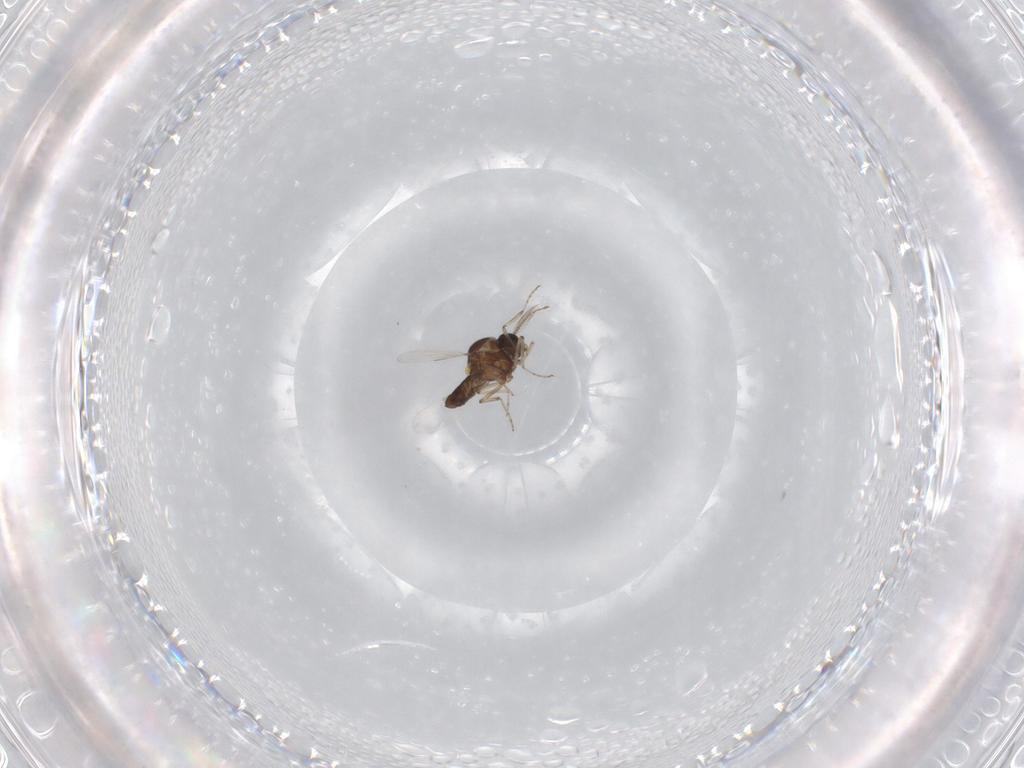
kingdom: Animalia
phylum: Arthropoda
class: Insecta
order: Diptera
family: Ceratopogonidae
